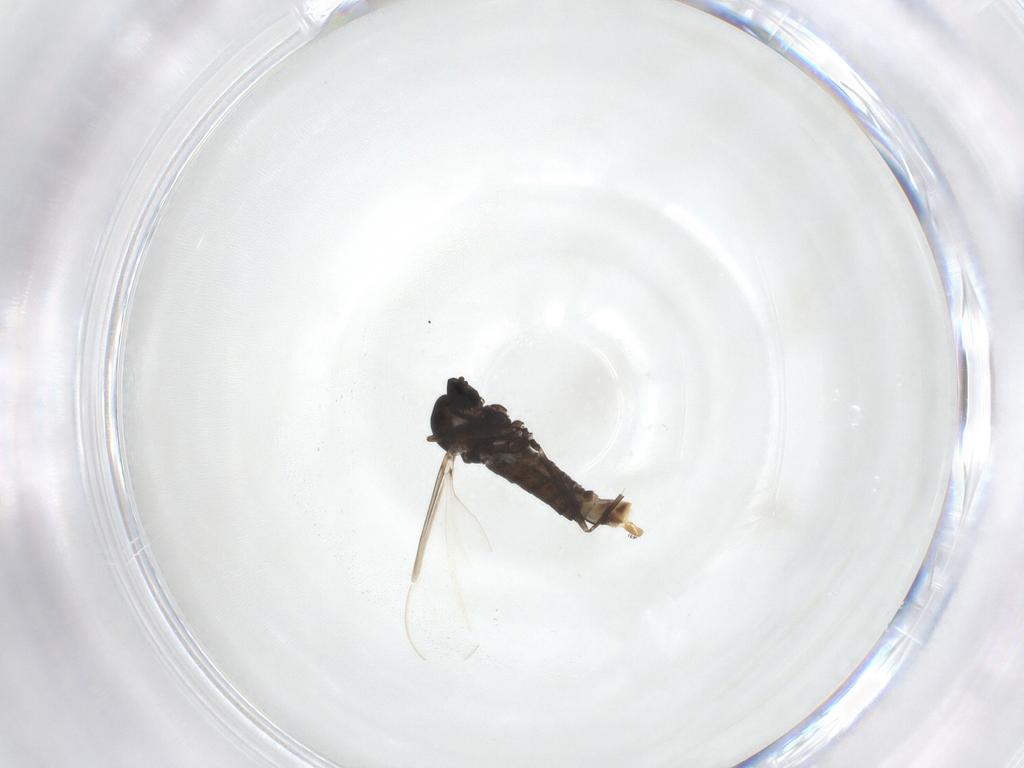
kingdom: Animalia
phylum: Arthropoda
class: Insecta
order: Diptera
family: Cecidomyiidae
